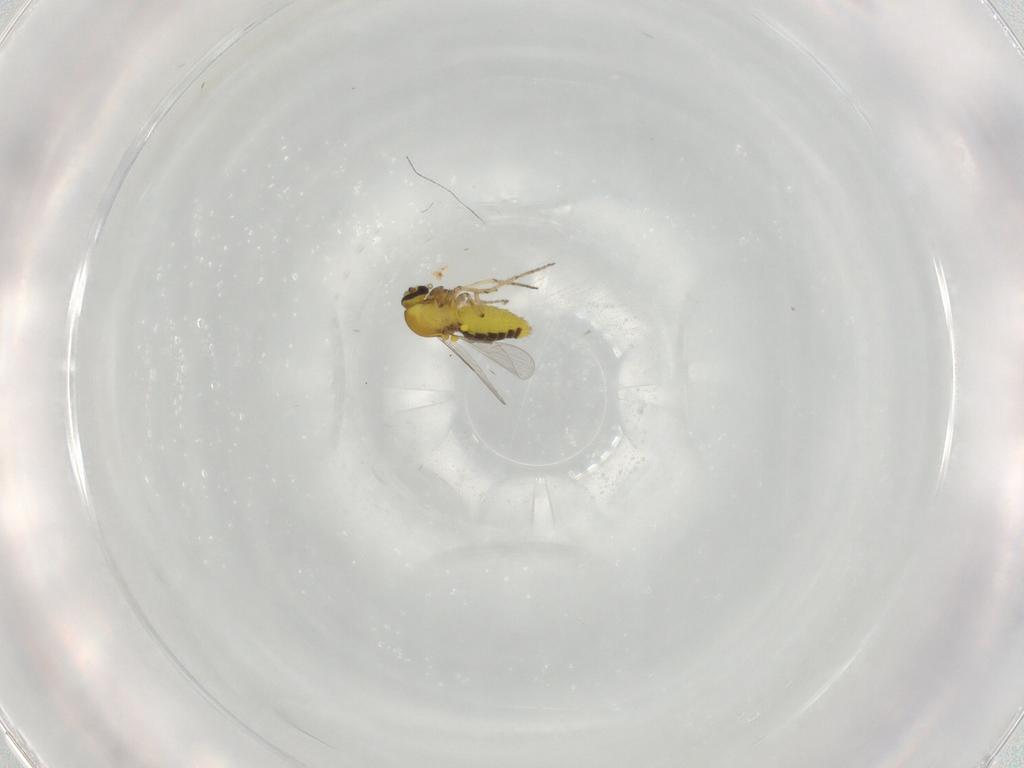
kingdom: Animalia
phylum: Arthropoda
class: Insecta
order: Diptera
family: Ceratopogonidae
